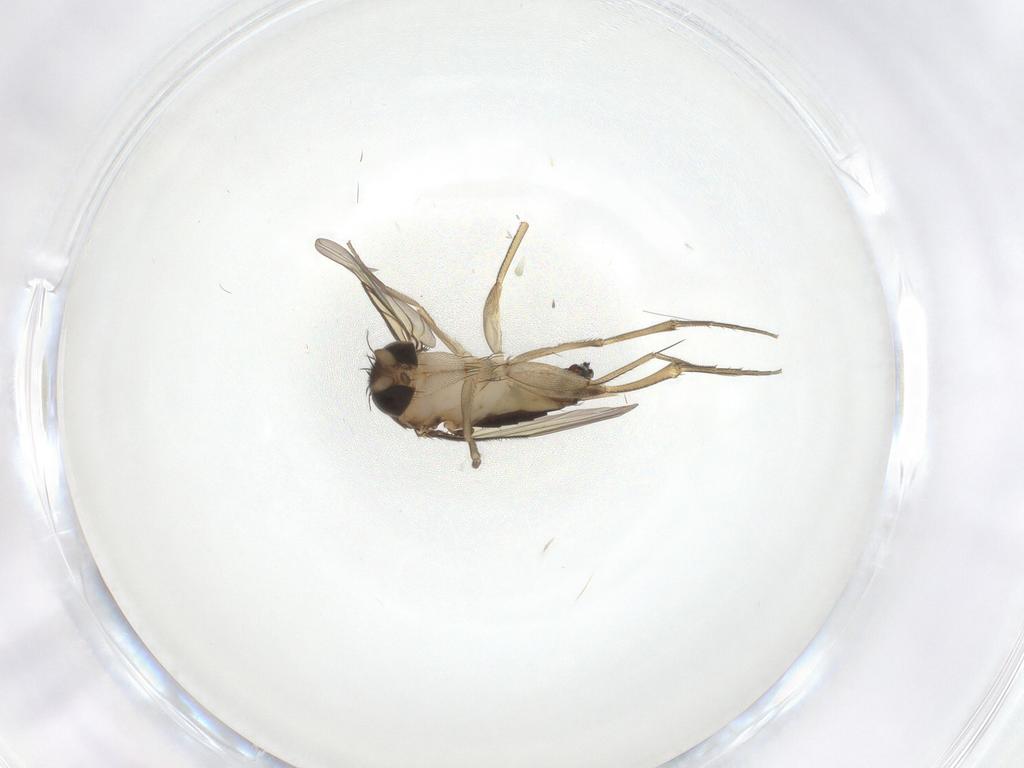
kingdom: Animalia
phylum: Arthropoda
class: Insecta
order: Diptera
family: Phoridae
